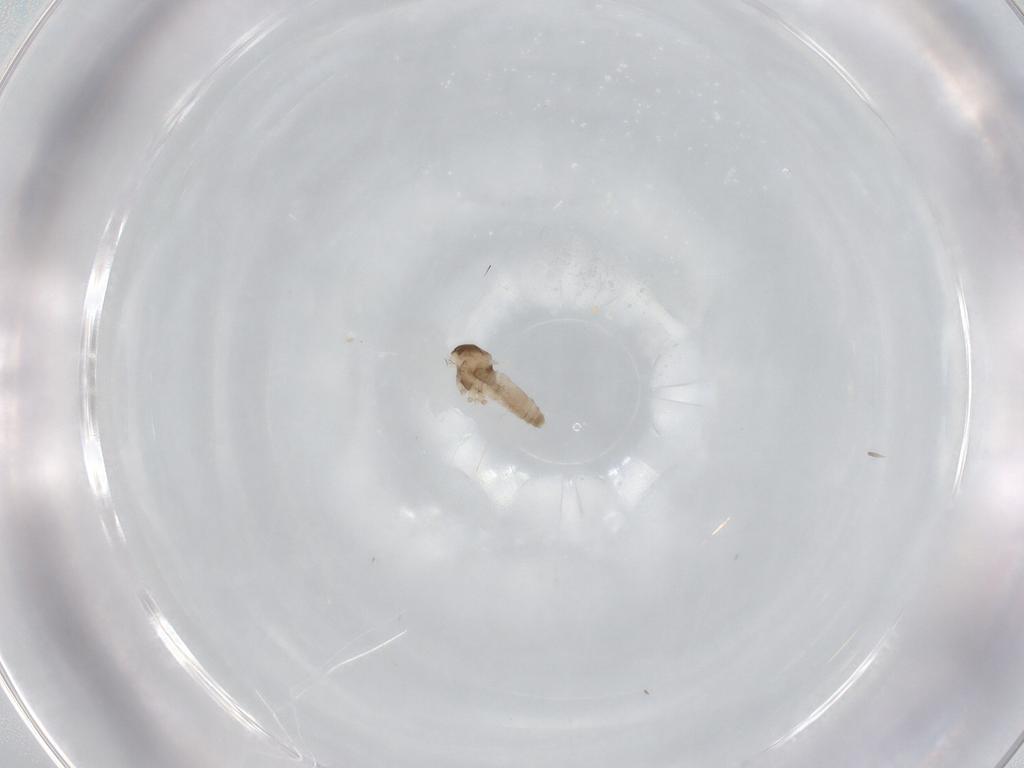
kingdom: Animalia
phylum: Arthropoda
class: Insecta
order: Diptera
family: Cecidomyiidae
